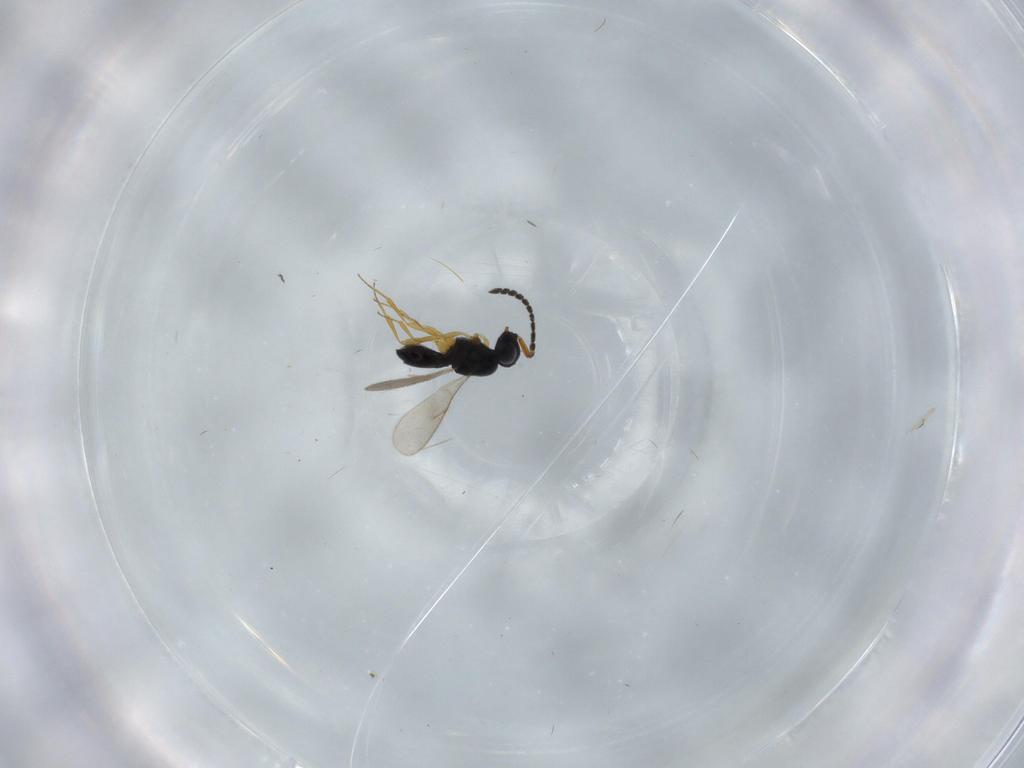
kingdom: Animalia
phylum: Arthropoda
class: Insecta
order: Hymenoptera
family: Scelionidae
